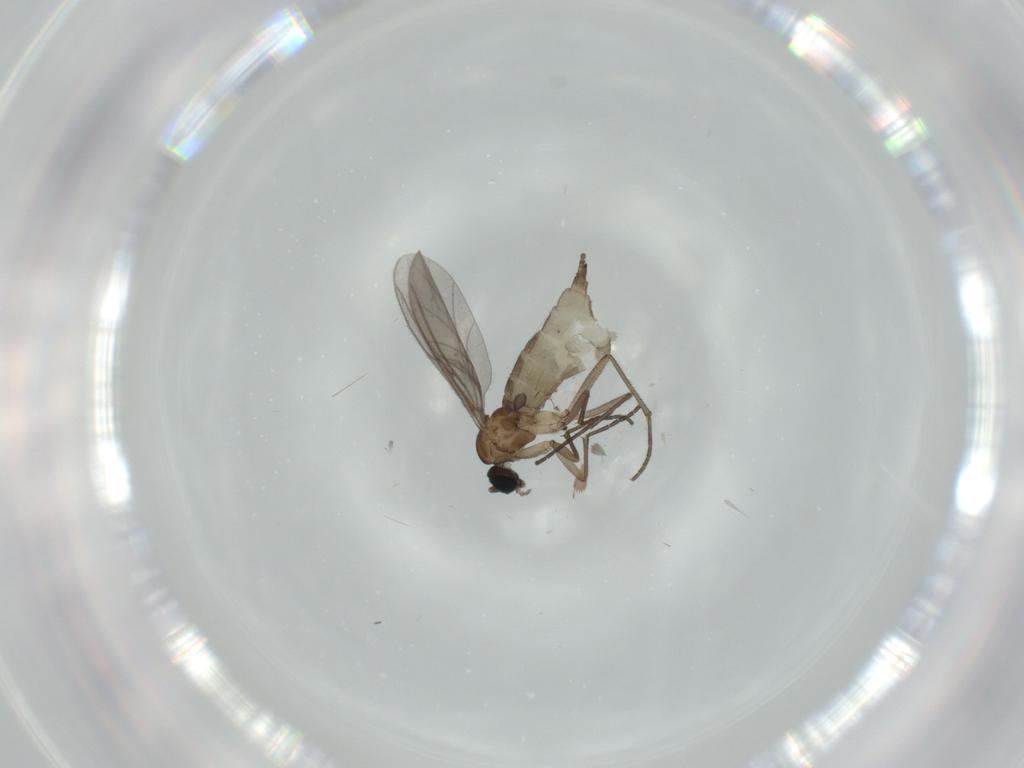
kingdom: Animalia
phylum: Arthropoda
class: Insecta
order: Diptera
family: Sciaridae
